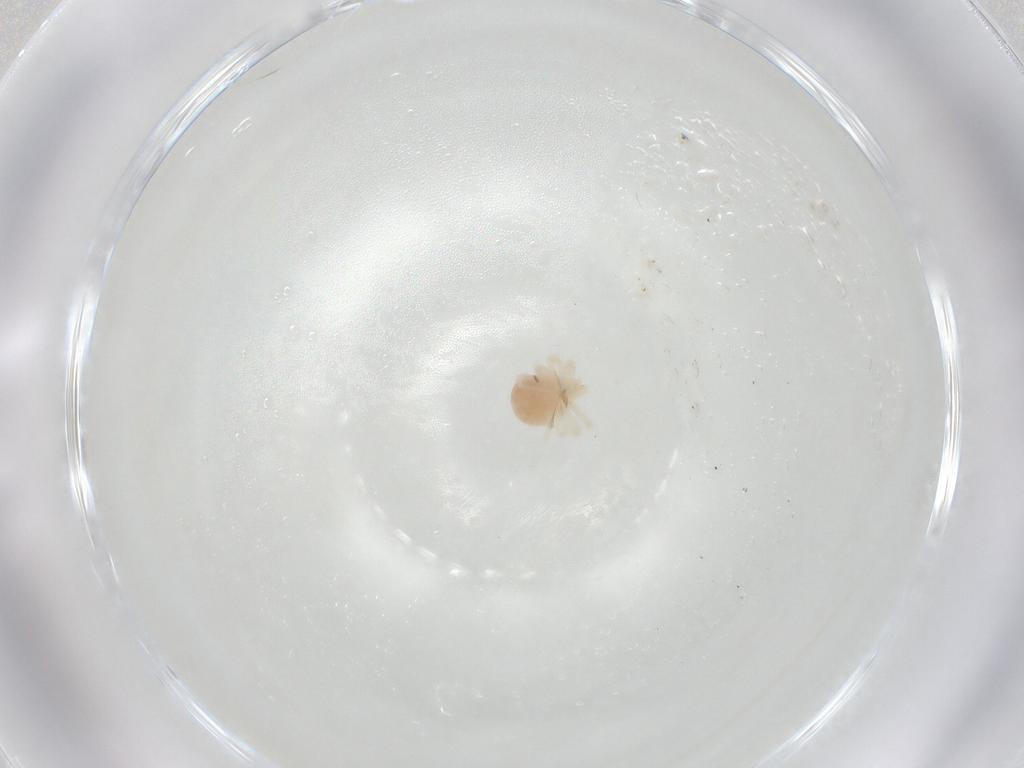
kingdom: Animalia
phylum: Arthropoda
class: Arachnida
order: Trombidiformes
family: Anystidae
